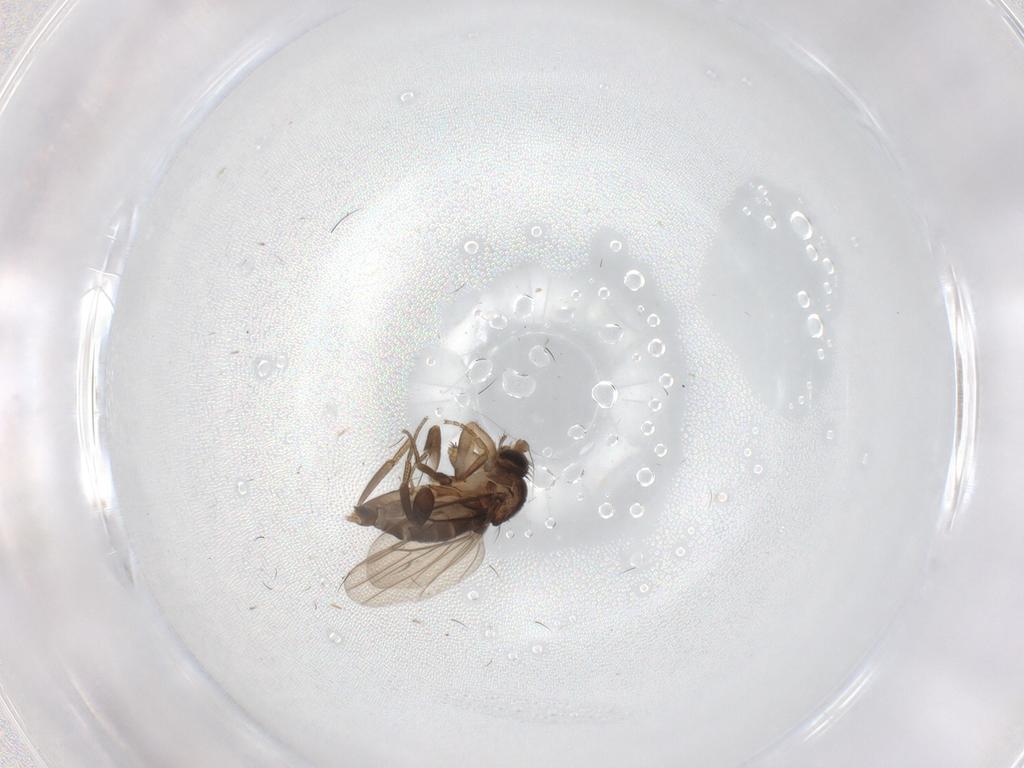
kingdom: Animalia
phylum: Arthropoda
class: Insecta
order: Diptera
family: Phoridae
